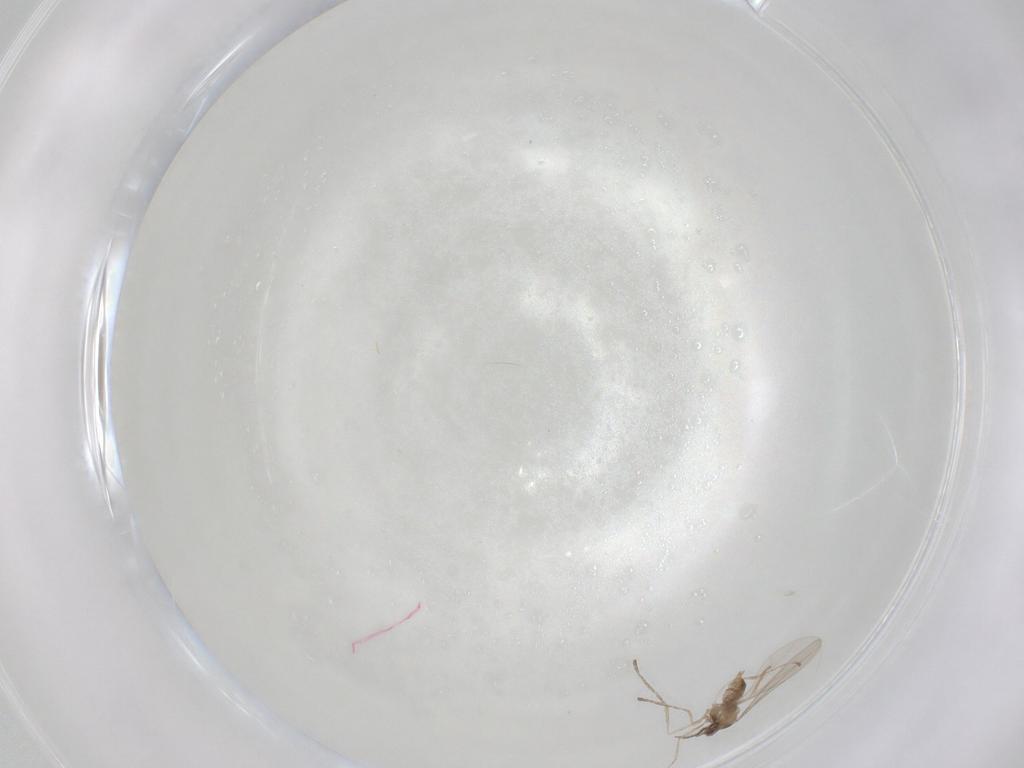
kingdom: Animalia
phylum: Arthropoda
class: Insecta
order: Diptera
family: Cecidomyiidae
